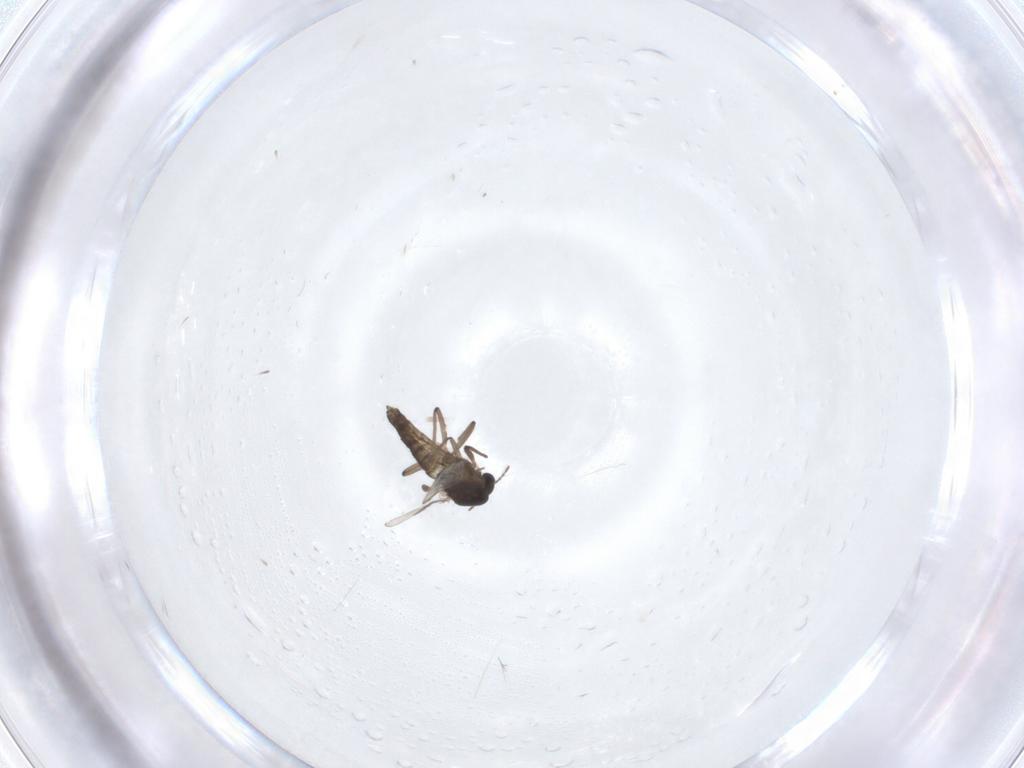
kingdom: Animalia
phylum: Arthropoda
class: Insecta
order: Diptera
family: Chironomidae
